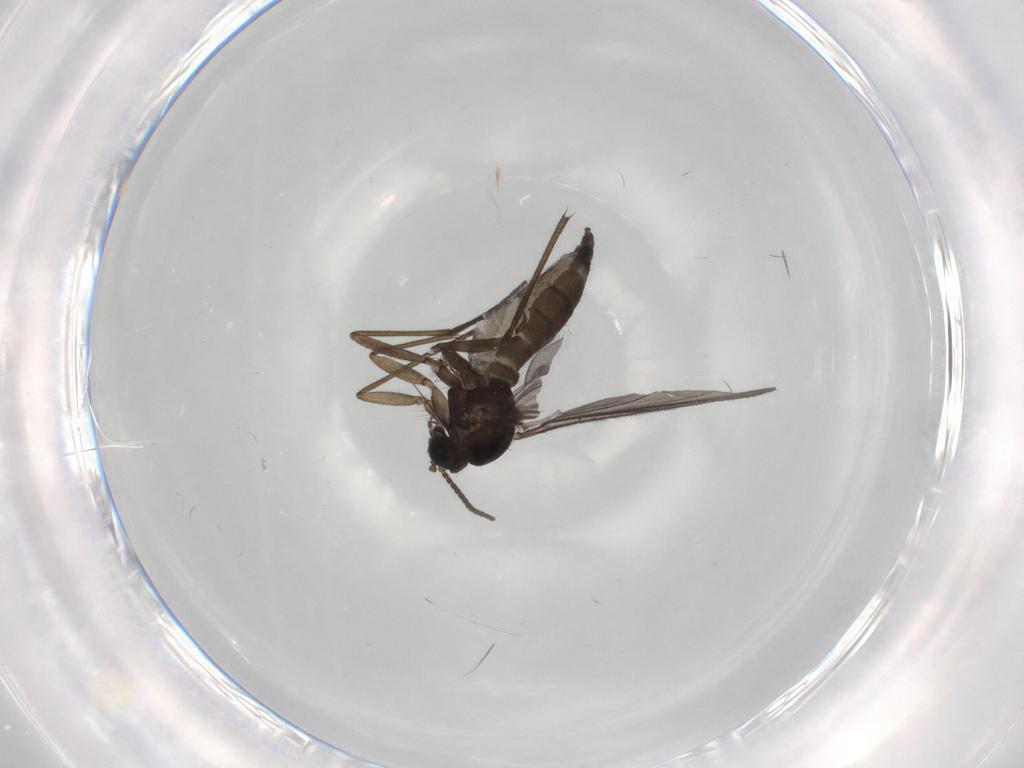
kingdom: Animalia
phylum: Arthropoda
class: Insecta
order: Diptera
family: Sciaridae
